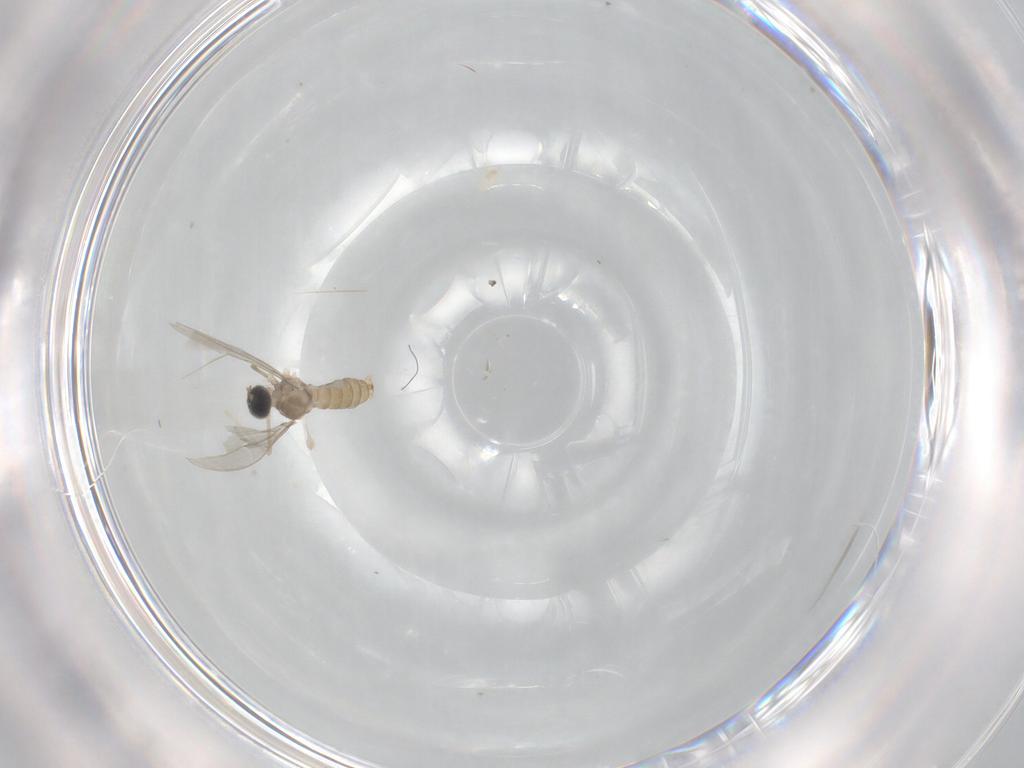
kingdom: Animalia
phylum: Arthropoda
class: Insecta
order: Diptera
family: Cecidomyiidae
